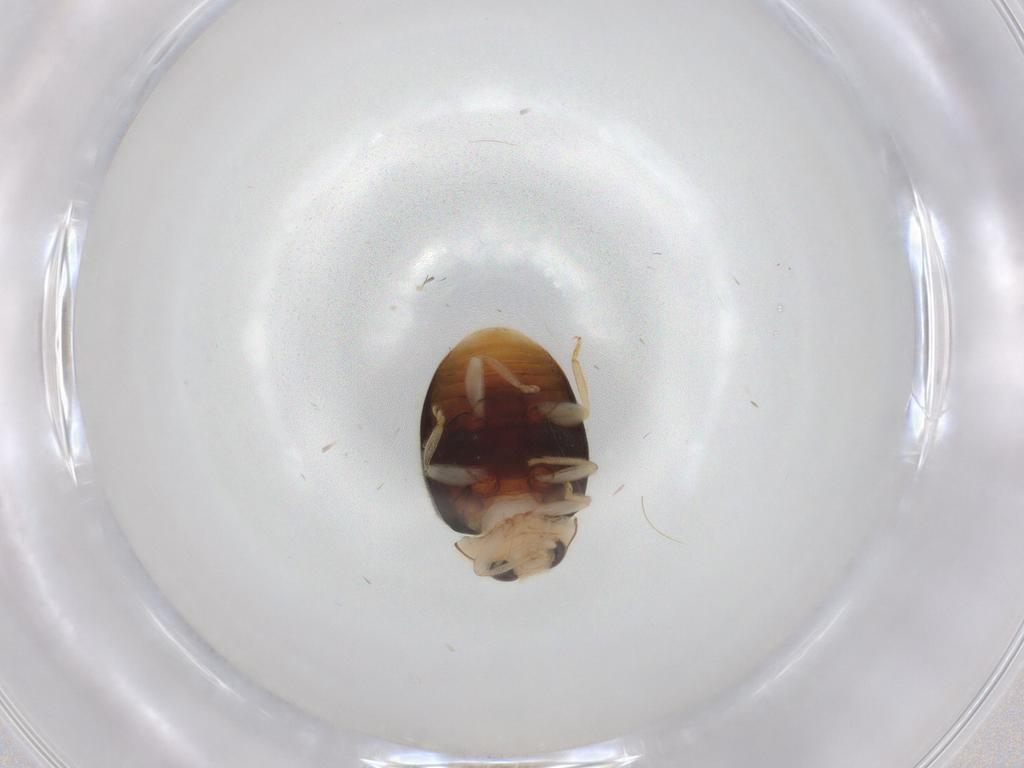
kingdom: Animalia
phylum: Arthropoda
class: Insecta
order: Coleoptera
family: Coccinellidae
